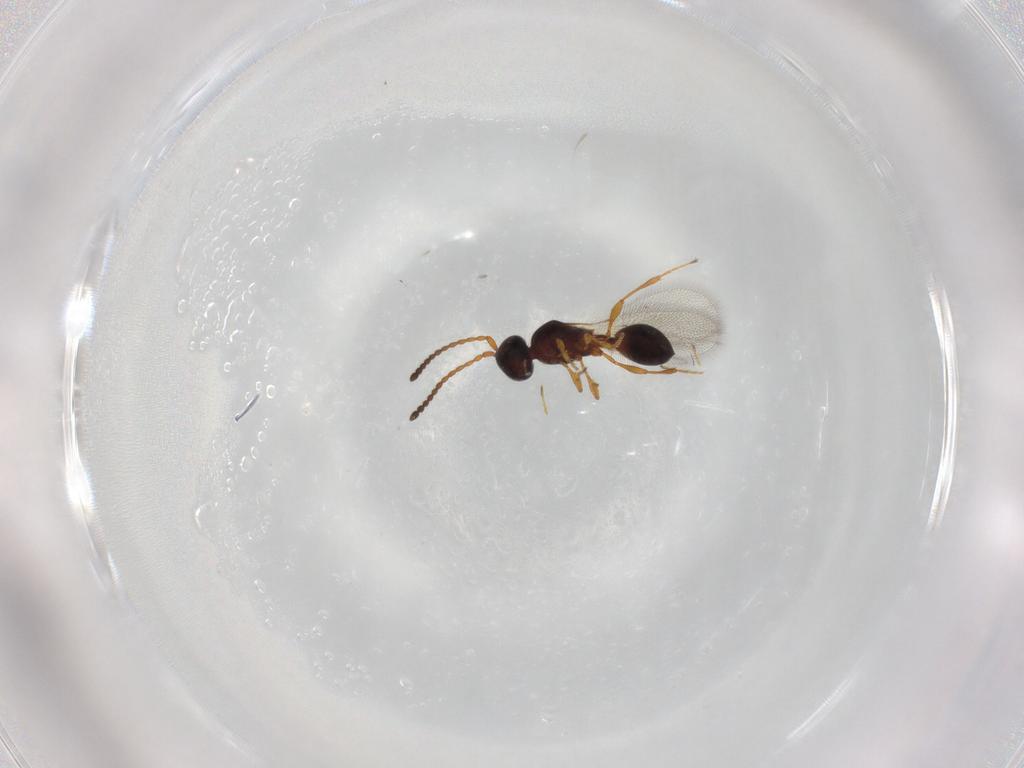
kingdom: Animalia
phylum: Arthropoda
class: Insecta
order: Hymenoptera
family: Diapriidae
